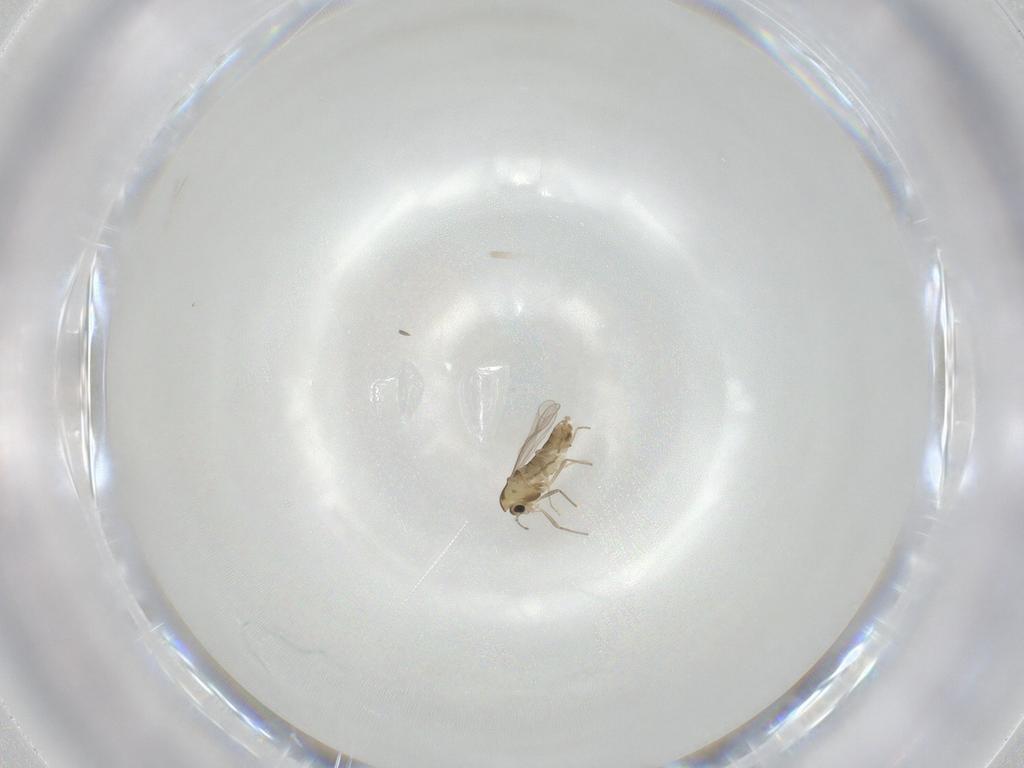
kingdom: Animalia
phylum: Arthropoda
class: Insecta
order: Diptera
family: Chironomidae
